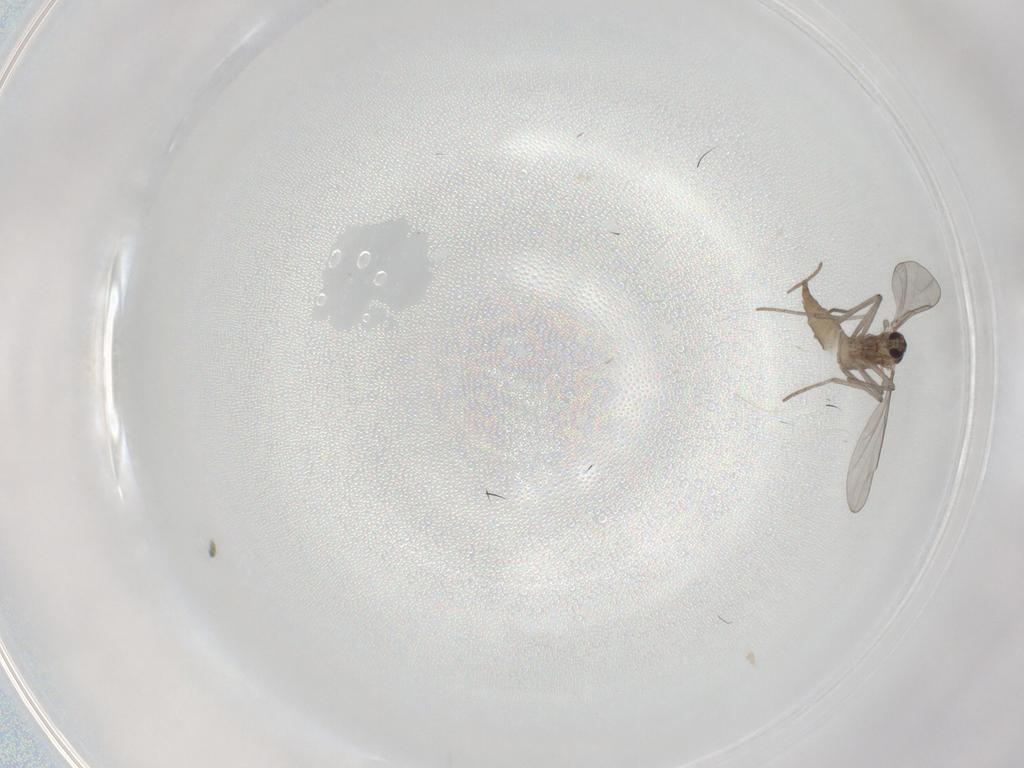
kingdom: Animalia
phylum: Arthropoda
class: Insecta
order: Diptera
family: Cecidomyiidae
